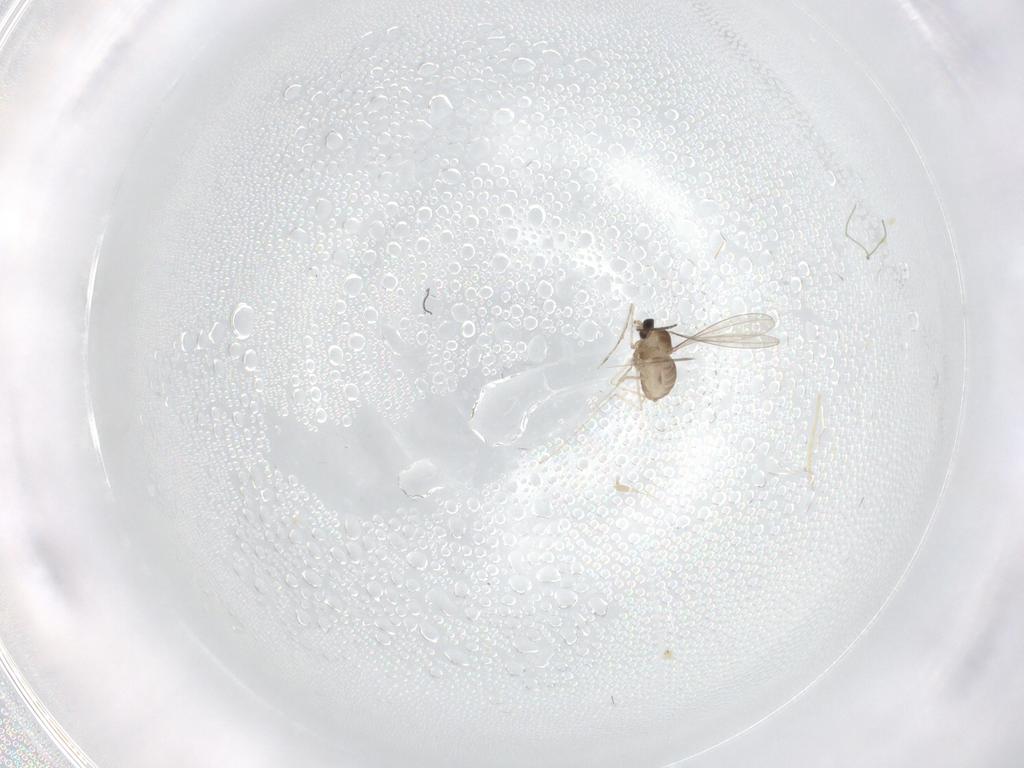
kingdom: Animalia
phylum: Arthropoda
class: Insecta
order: Diptera
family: Cecidomyiidae
